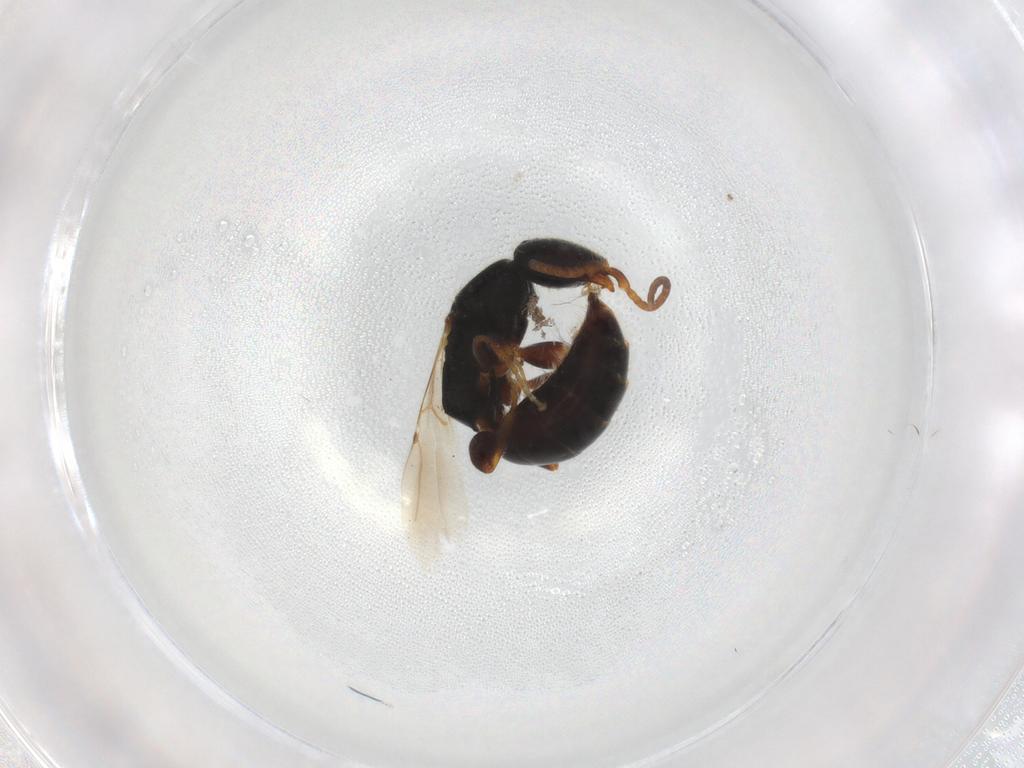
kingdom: Animalia
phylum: Arthropoda
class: Insecta
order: Hymenoptera
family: Bethylidae
